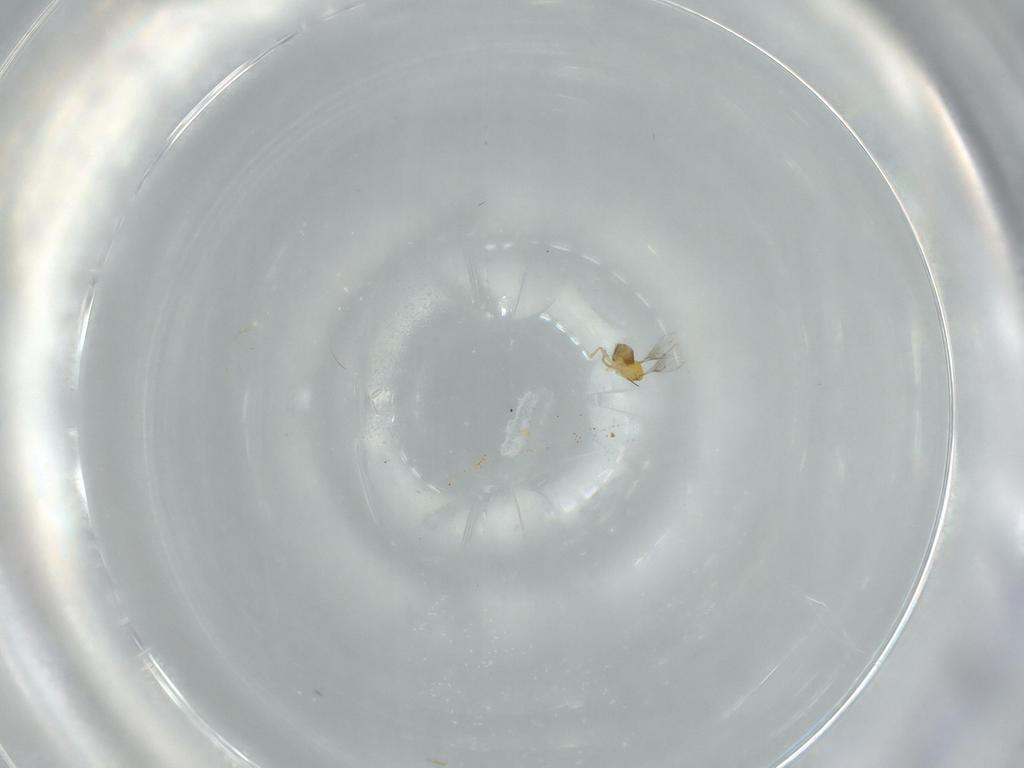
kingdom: Animalia
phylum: Arthropoda
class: Insecta
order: Hymenoptera
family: Trichogrammatidae
